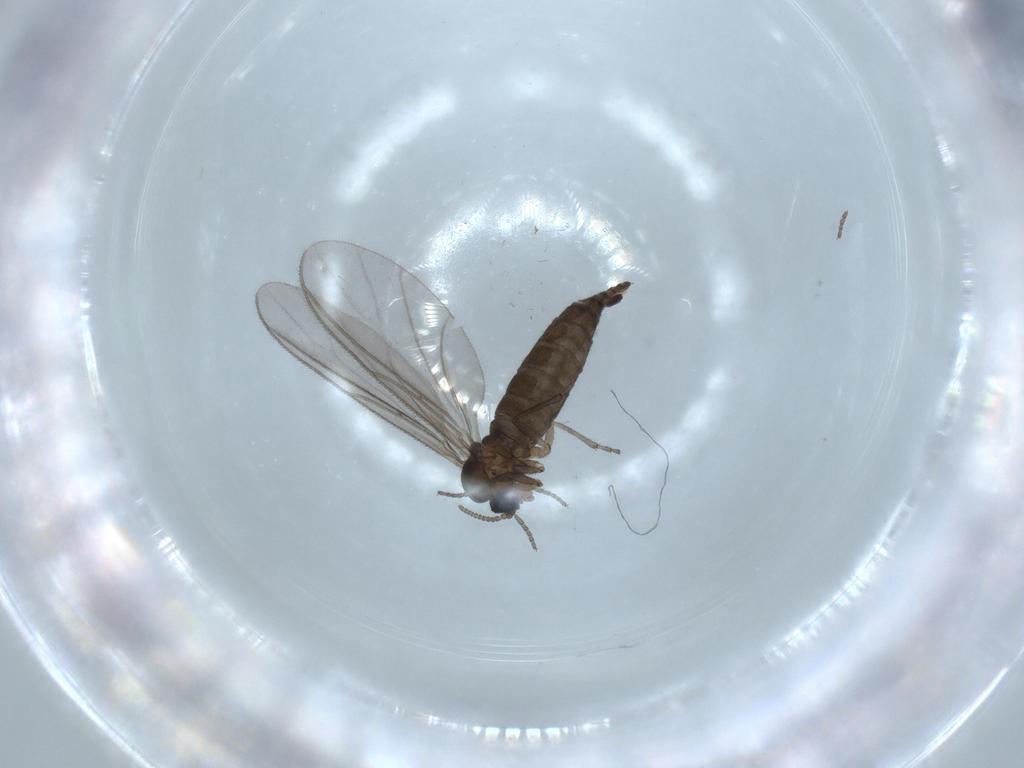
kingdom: Animalia
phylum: Arthropoda
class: Insecta
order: Diptera
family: Sciaridae
